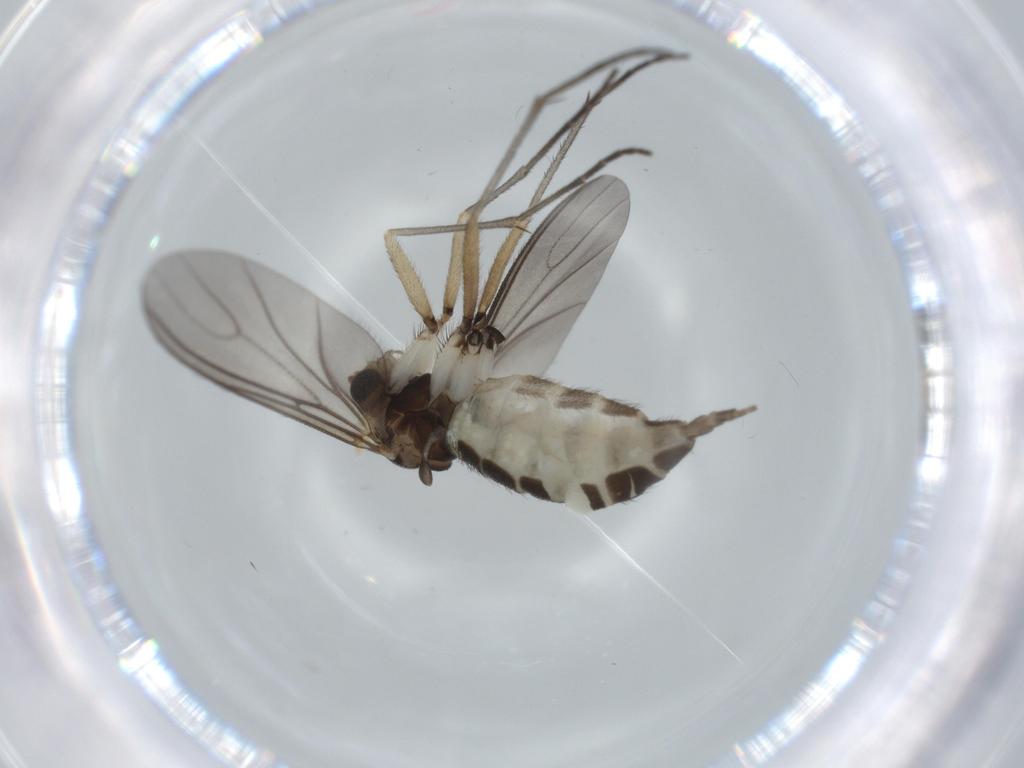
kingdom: Animalia
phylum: Arthropoda
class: Insecta
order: Diptera
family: Sciaridae
